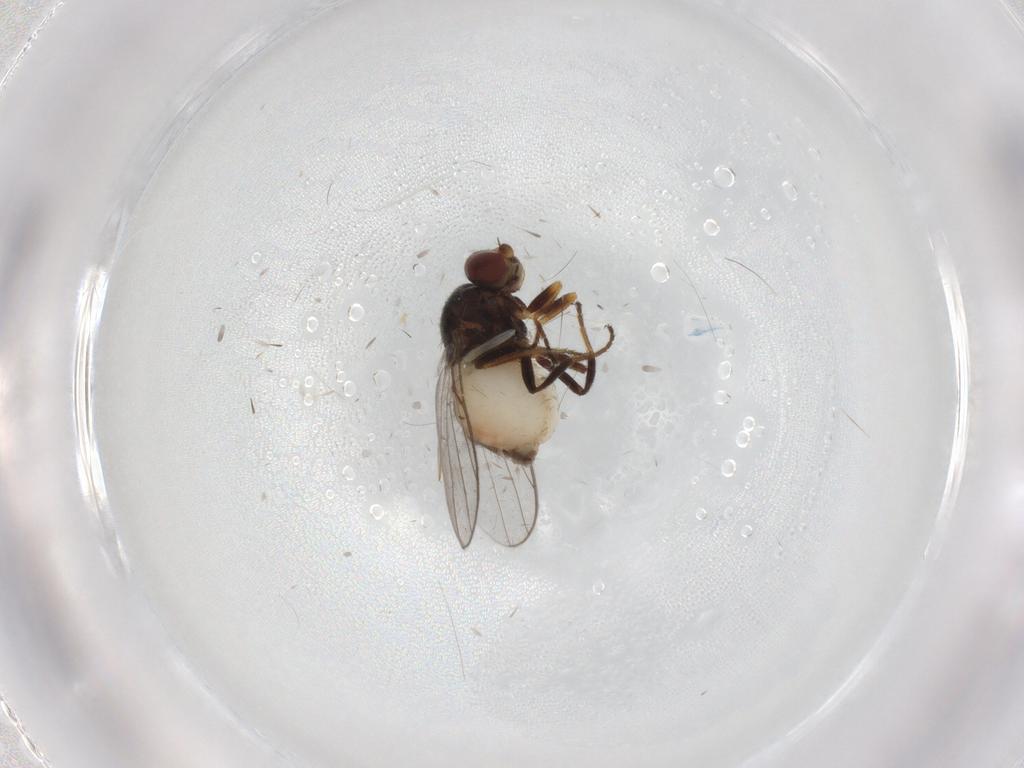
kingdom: Animalia
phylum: Arthropoda
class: Insecta
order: Diptera
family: Chloropidae
